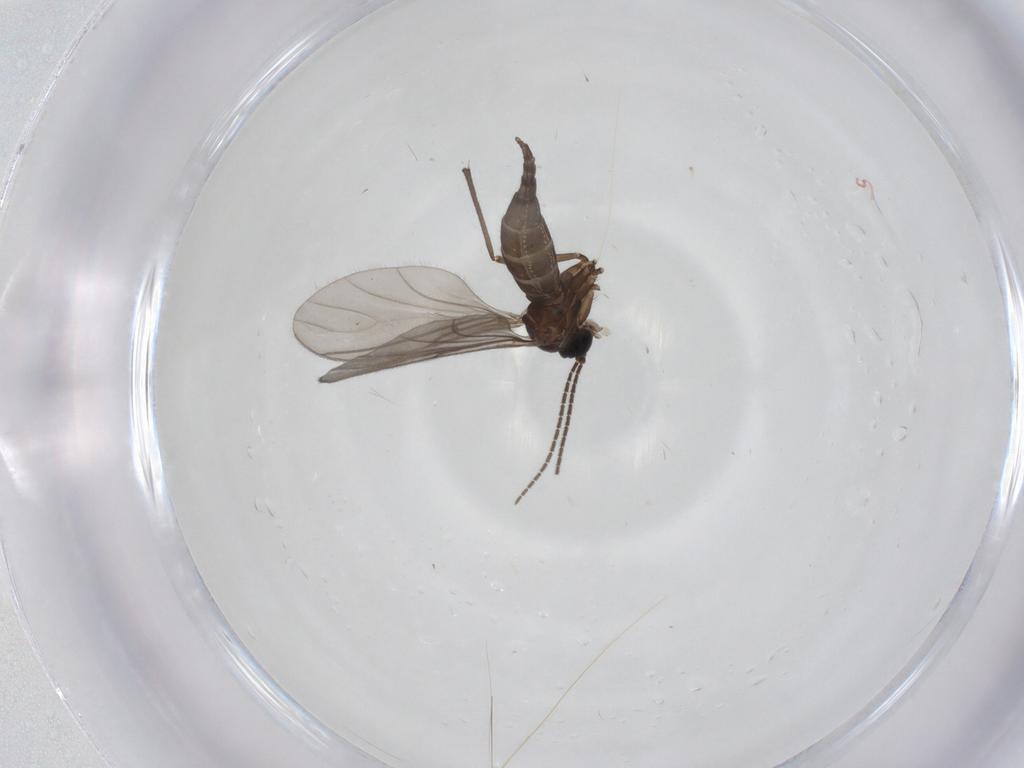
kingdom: Animalia
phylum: Arthropoda
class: Insecta
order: Diptera
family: Sciaridae
